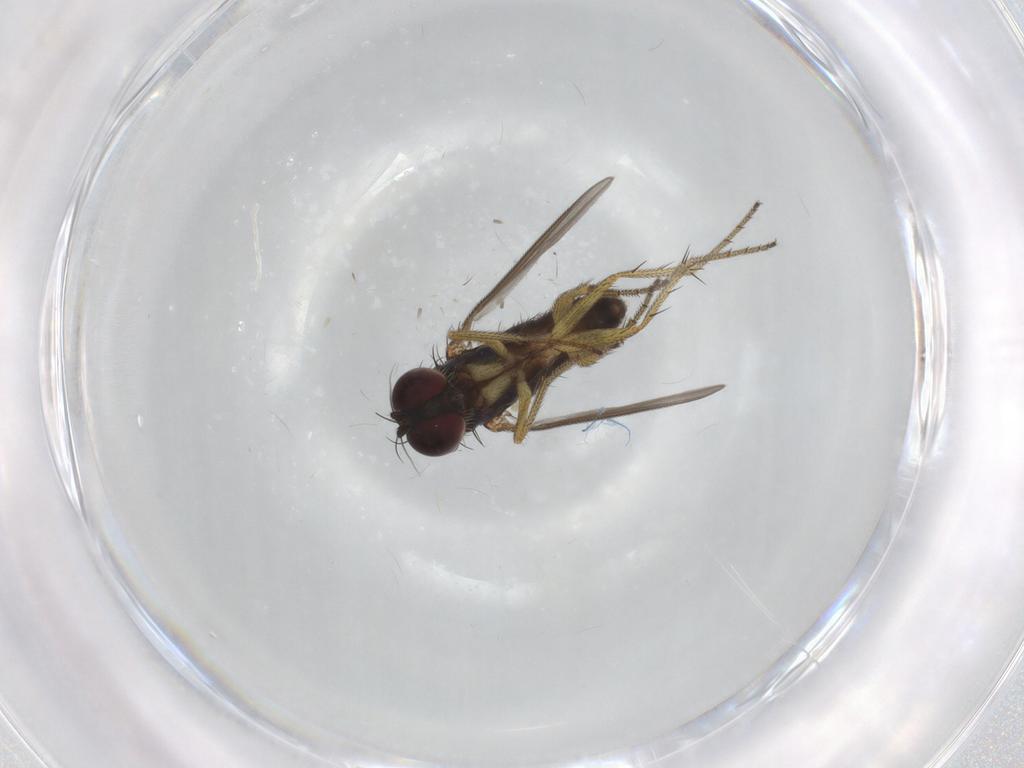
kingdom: Animalia
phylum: Arthropoda
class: Insecta
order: Diptera
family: Dolichopodidae
